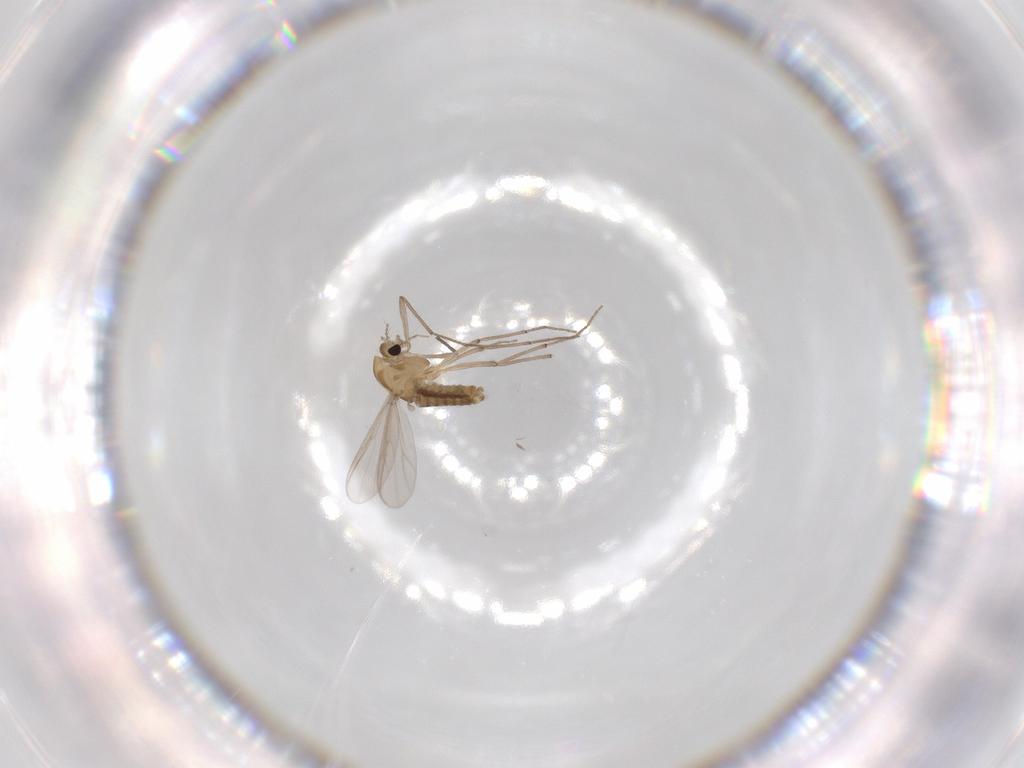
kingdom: Animalia
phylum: Arthropoda
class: Insecta
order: Diptera
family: Chironomidae
